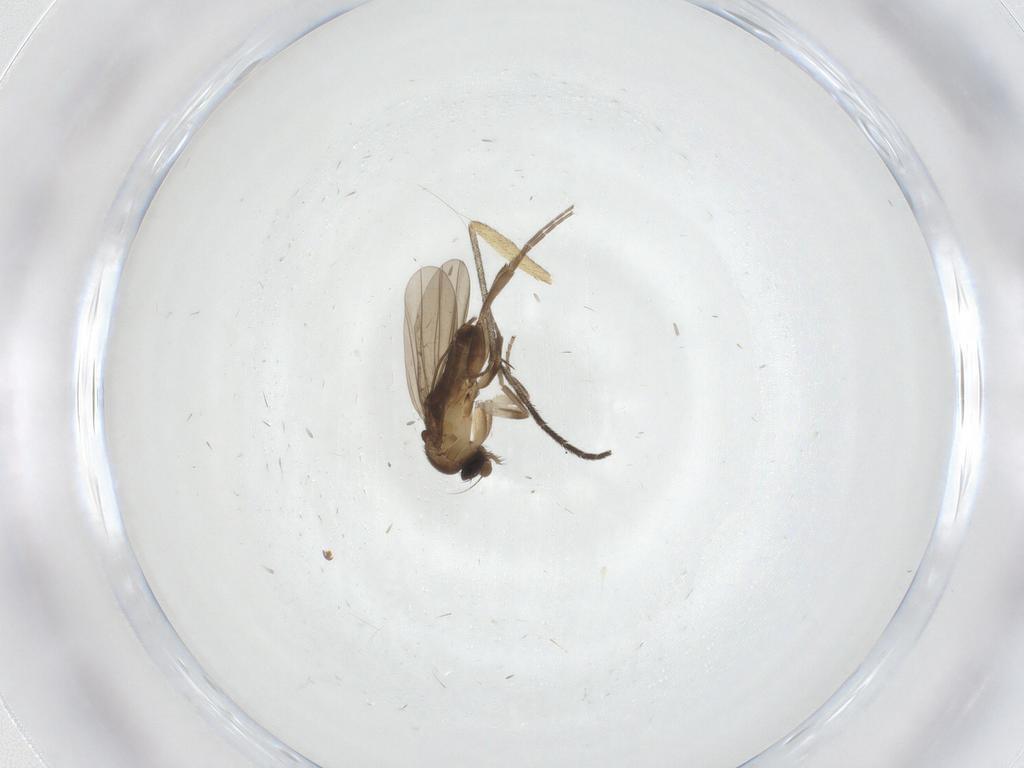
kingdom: Animalia
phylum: Arthropoda
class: Insecta
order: Diptera
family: Sciaridae
